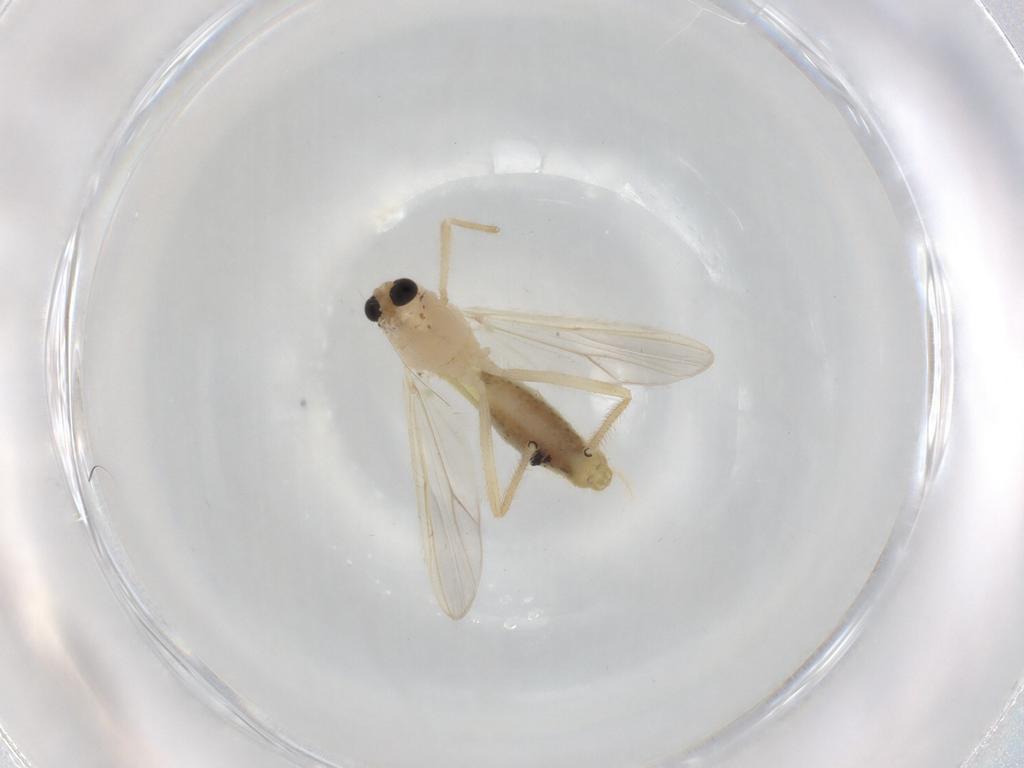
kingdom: Animalia
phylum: Arthropoda
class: Insecta
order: Diptera
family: Chironomidae
